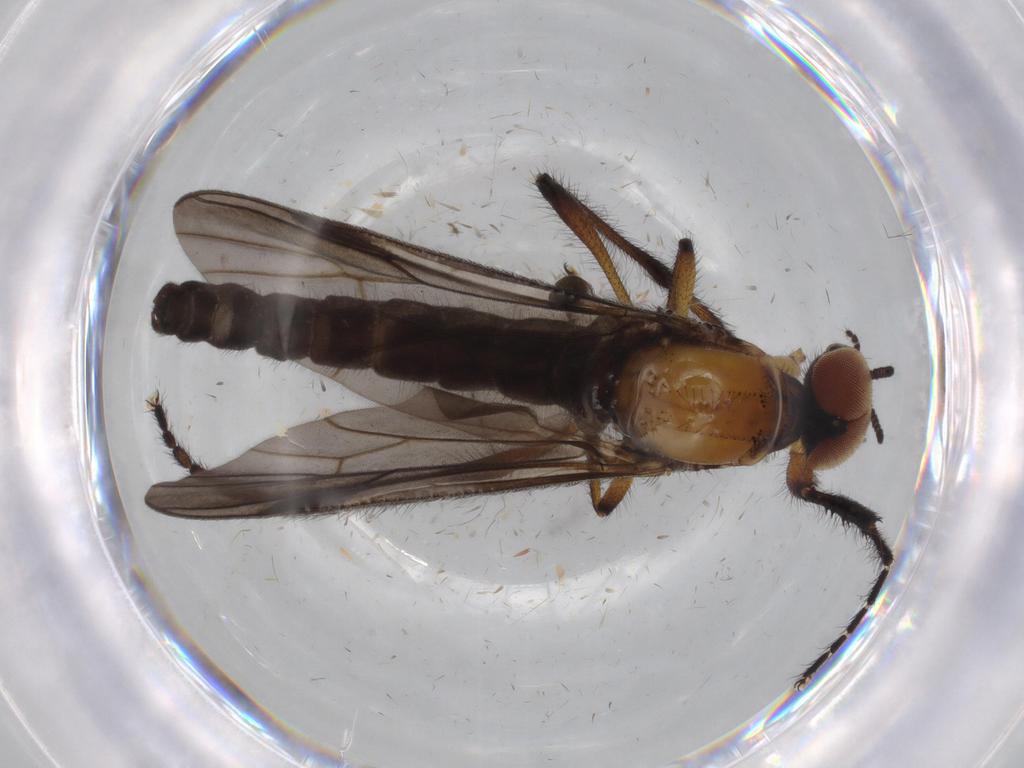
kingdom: Animalia
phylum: Arthropoda
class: Insecta
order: Diptera
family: Sciaridae
